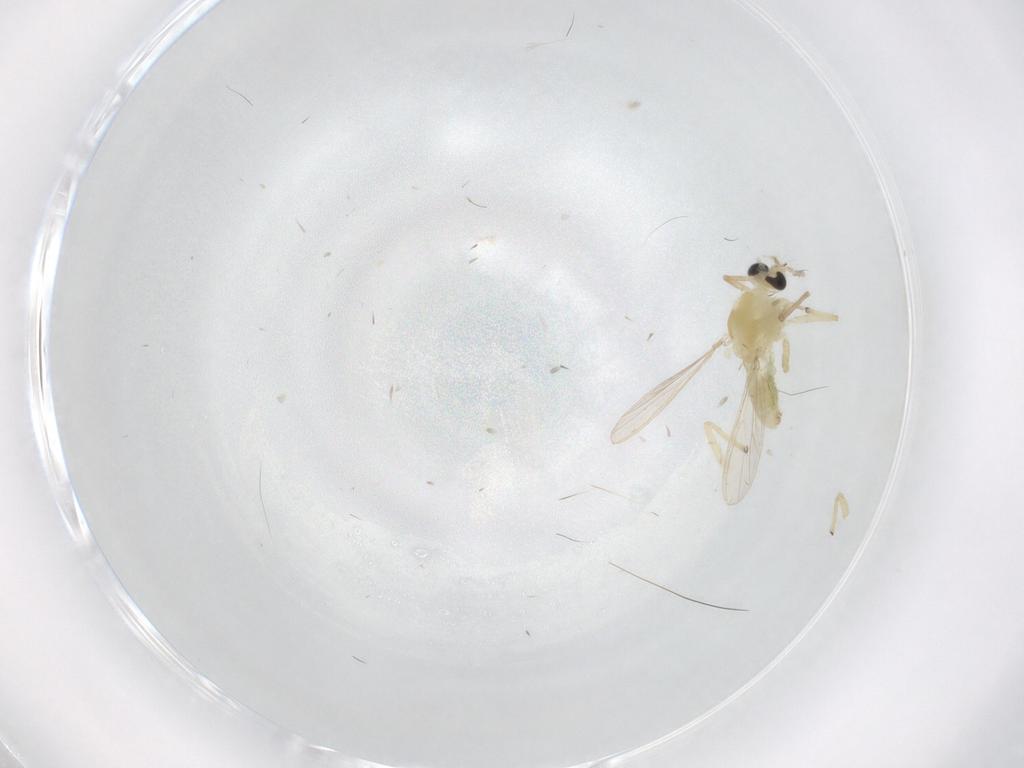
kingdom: Animalia
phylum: Arthropoda
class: Insecta
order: Diptera
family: Chironomidae
